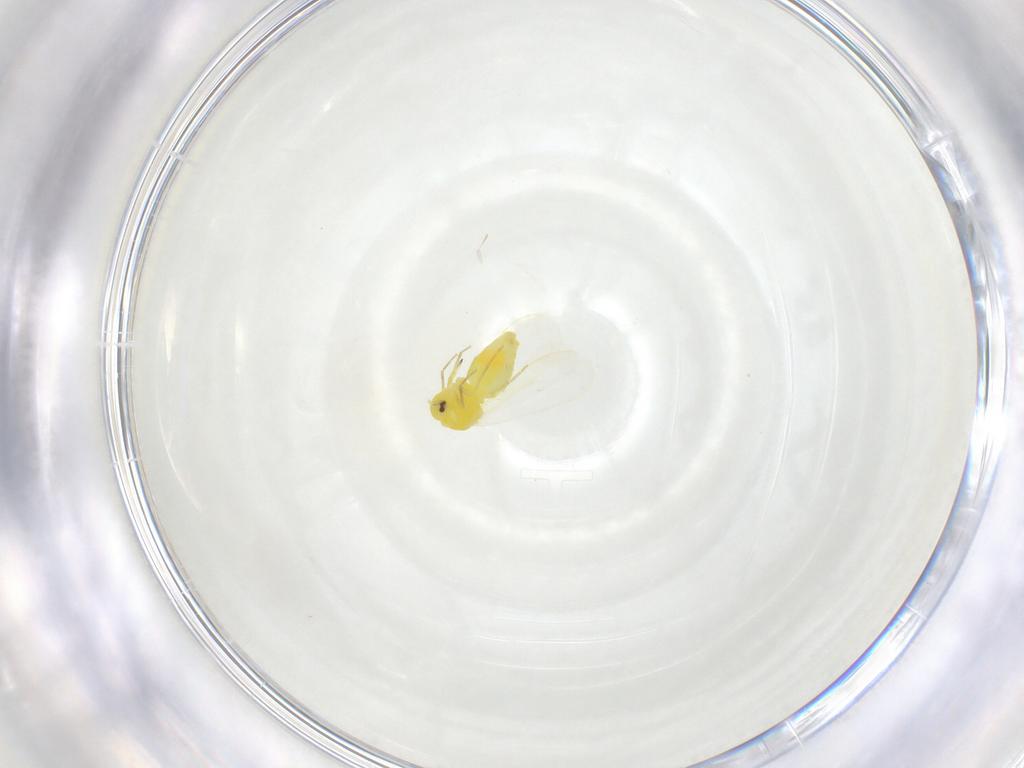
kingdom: Animalia
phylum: Arthropoda
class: Insecta
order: Hemiptera
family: Aleyrodidae
